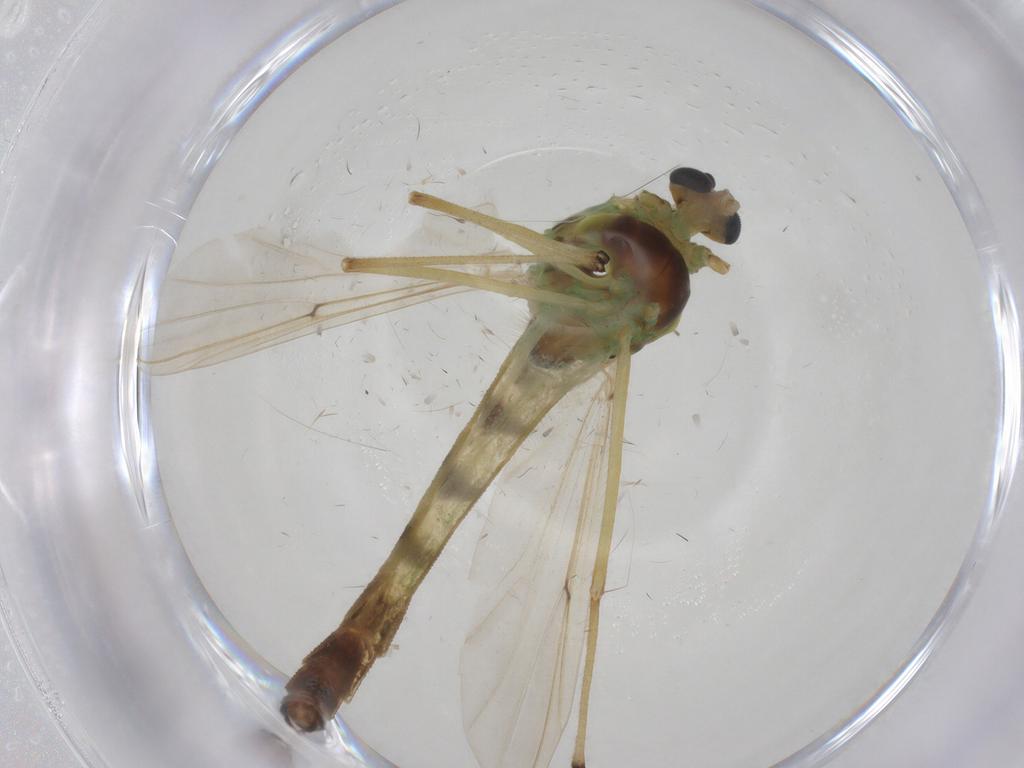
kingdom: Animalia
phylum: Arthropoda
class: Insecta
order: Diptera
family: Chironomidae
